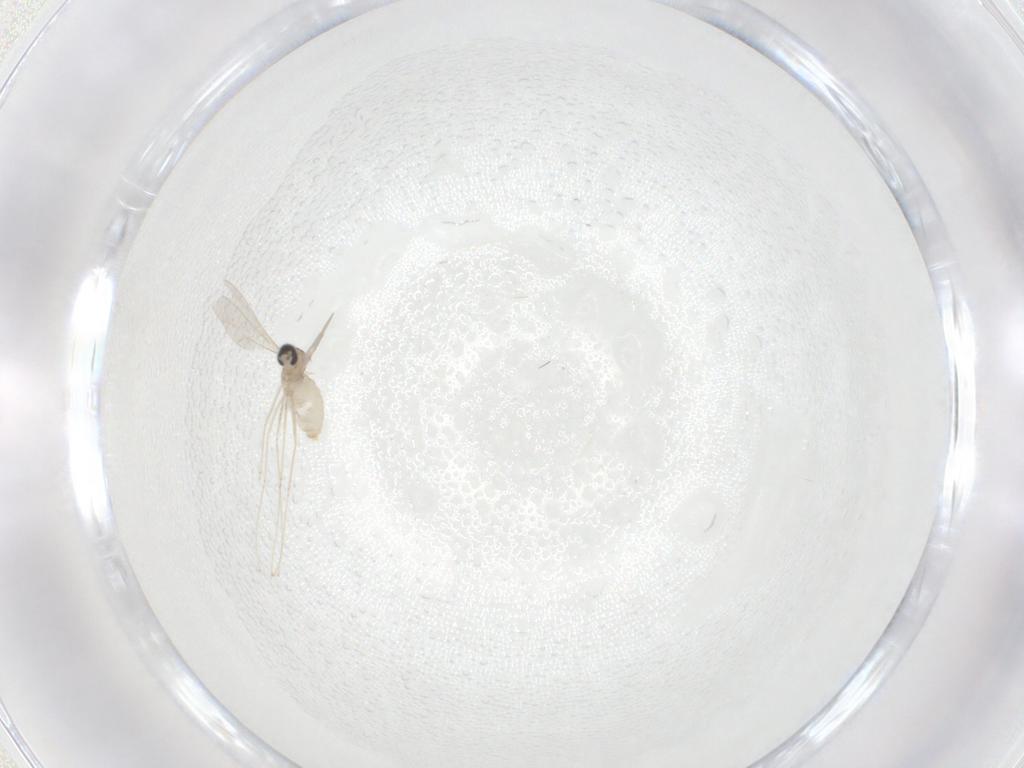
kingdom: Animalia
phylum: Arthropoda
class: Insecta
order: Diptera
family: Cecidomyiidae
